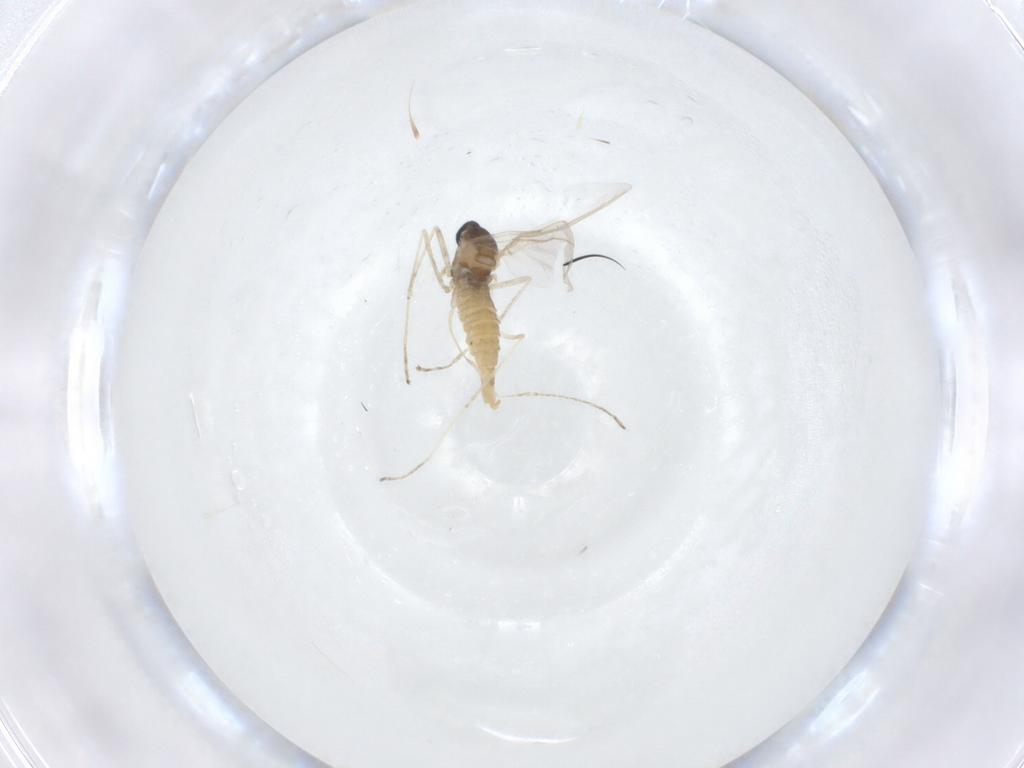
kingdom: Animalia
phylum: Arthropoda
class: Insecta
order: Diptera
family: Cecidomyiidae
